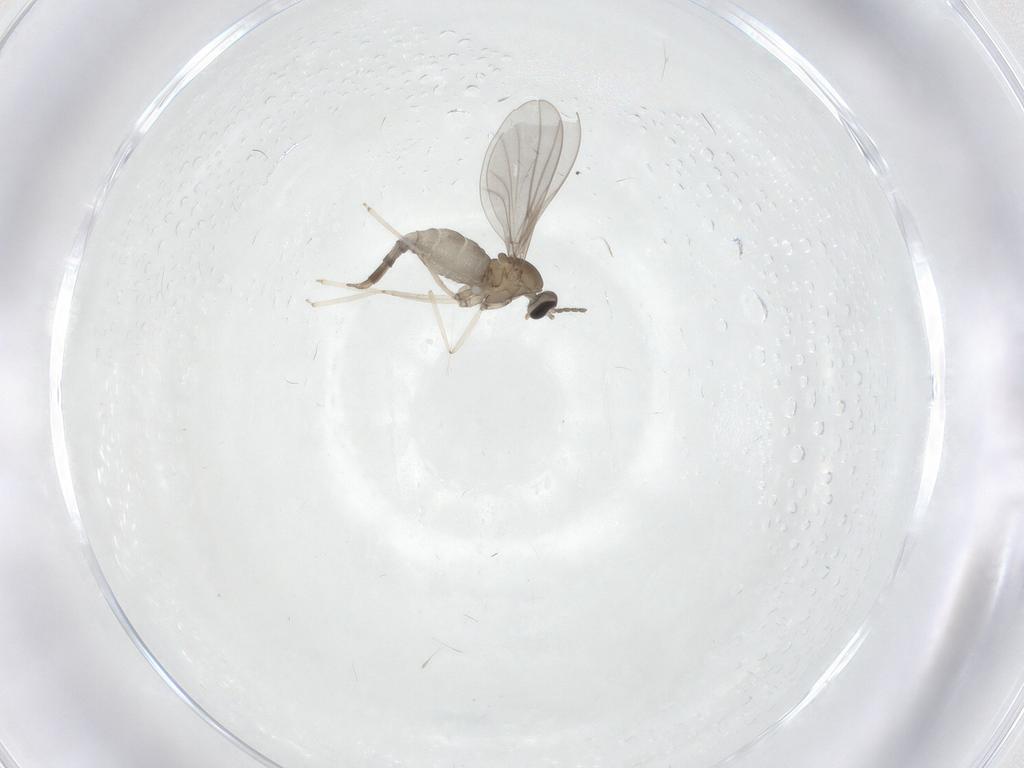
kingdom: Animalia
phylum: Arthropoda
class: Insecta
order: Diptera
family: Cecidomyiidae
